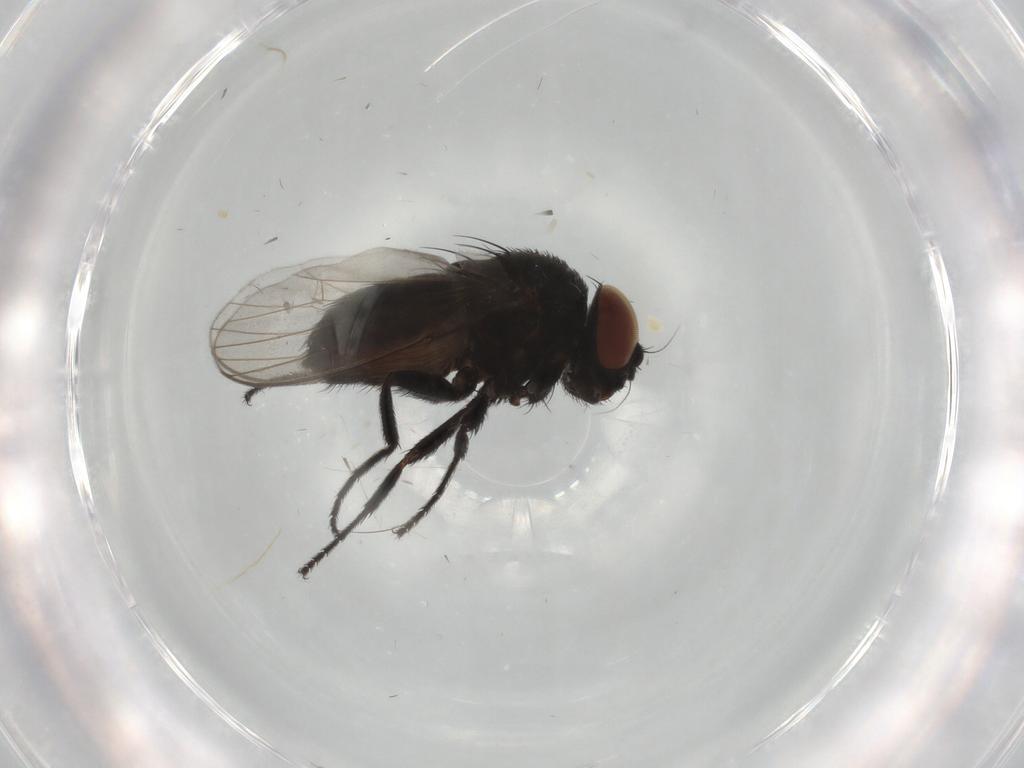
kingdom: Animalia
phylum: Arthropoda
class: Insecta
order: Diptera
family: Milichiidae
